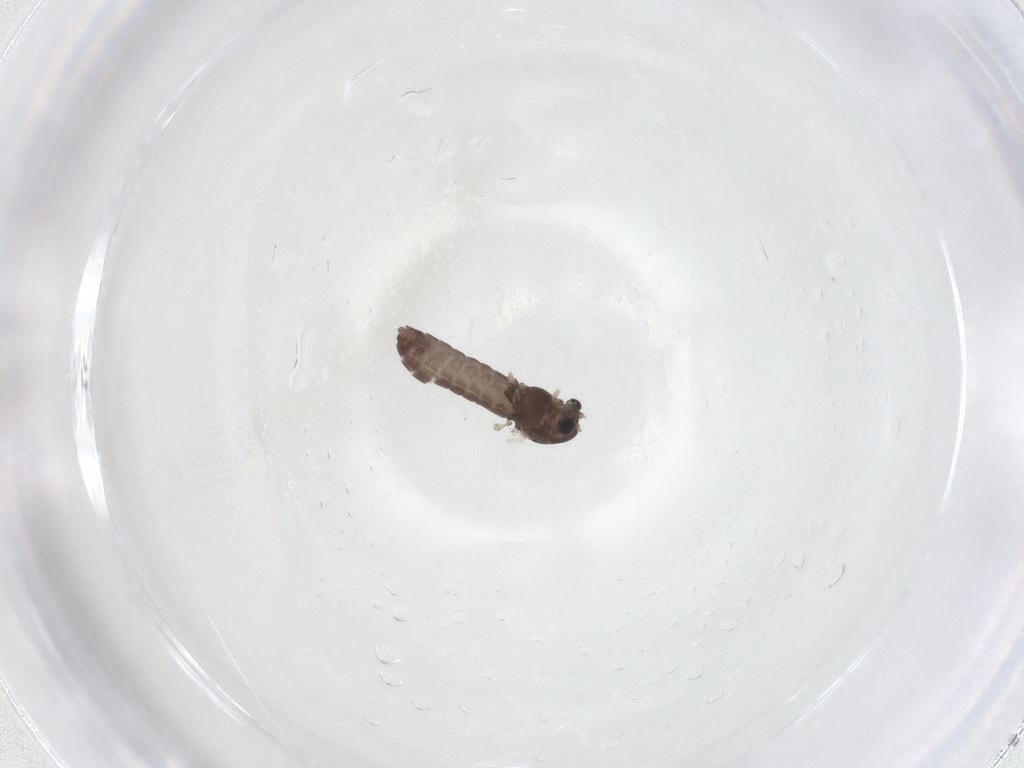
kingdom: Animalia
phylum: Arthropoda
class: Insecta
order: Diptera
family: Chironomidae
